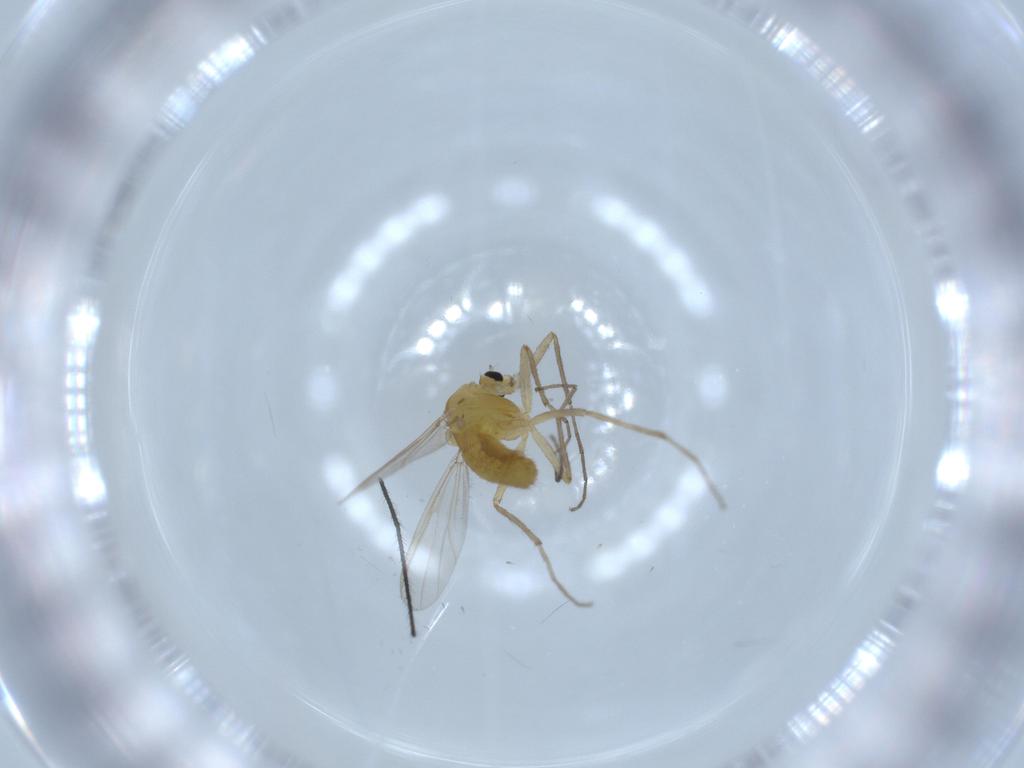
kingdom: Animalia
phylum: Arthropoda
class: Insecta
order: Diptera
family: Chironomidae
